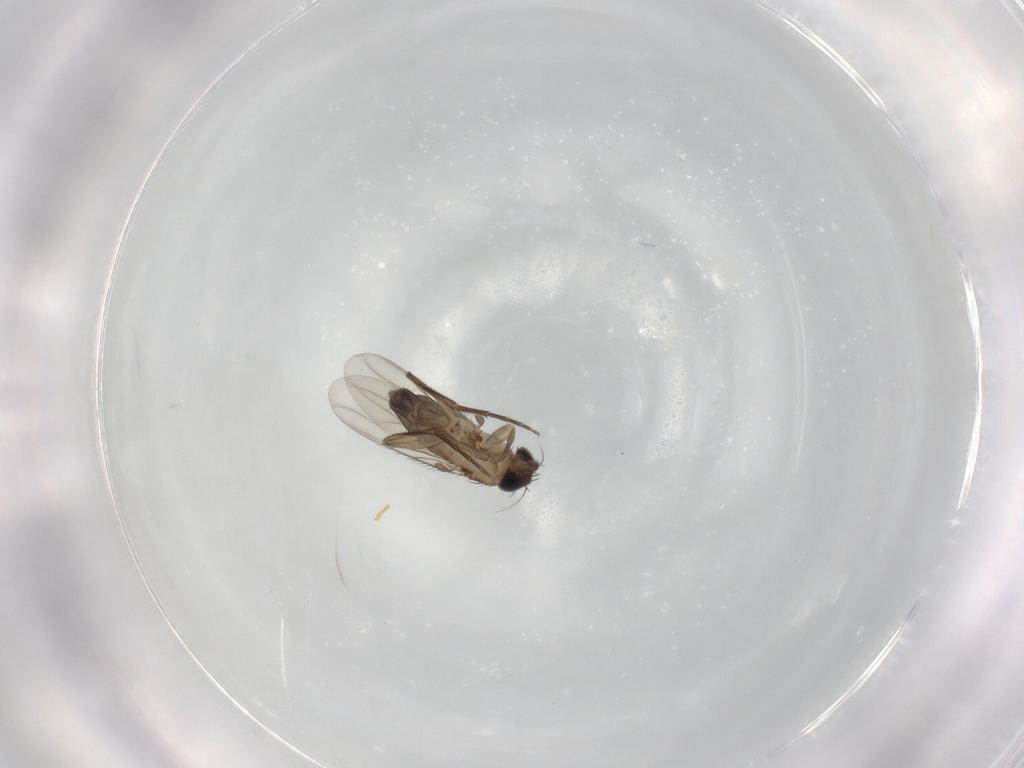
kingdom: Animalia
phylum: Arthropoda
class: Insecta
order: Diptera
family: Phoridae
